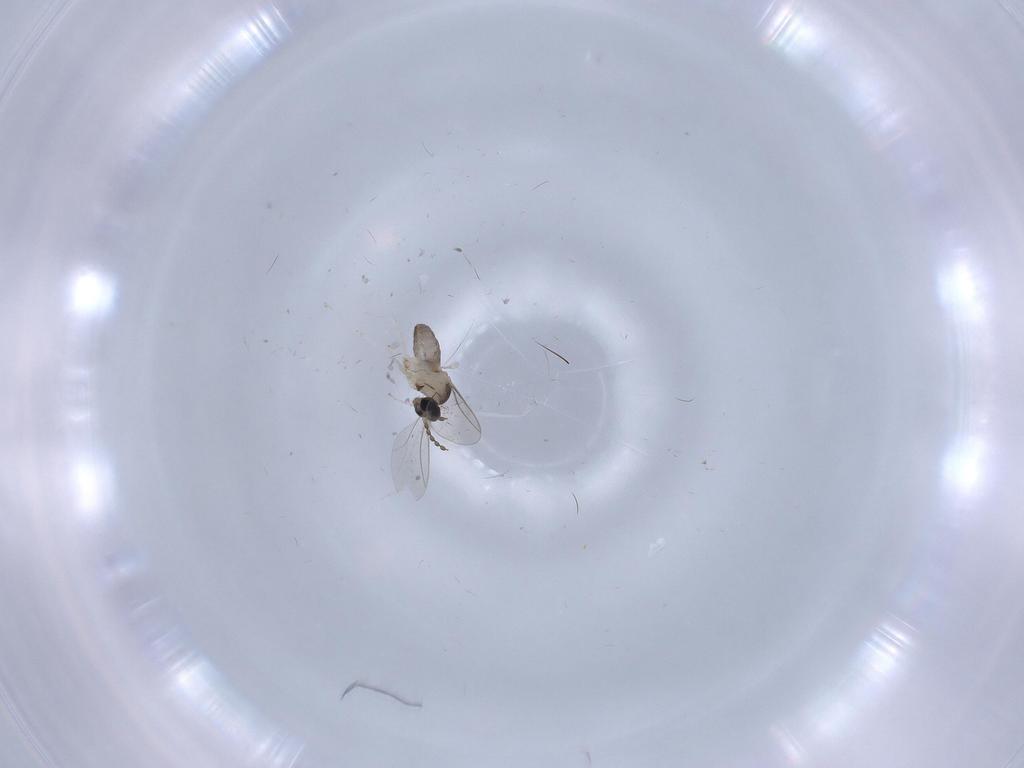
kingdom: Animalia
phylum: Arthropoda
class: Insecta
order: Diptera
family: Cecidomyiidae
